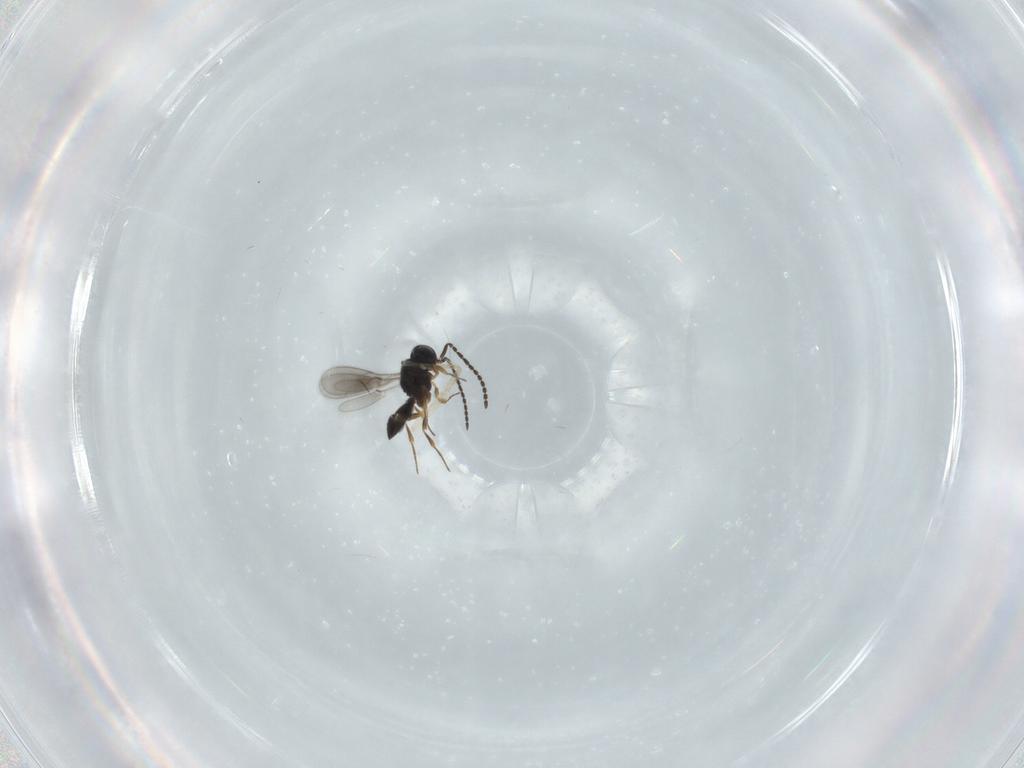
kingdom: Animalia
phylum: Arthropoda
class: Insecta
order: Hymenoptera
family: Scelionidae
